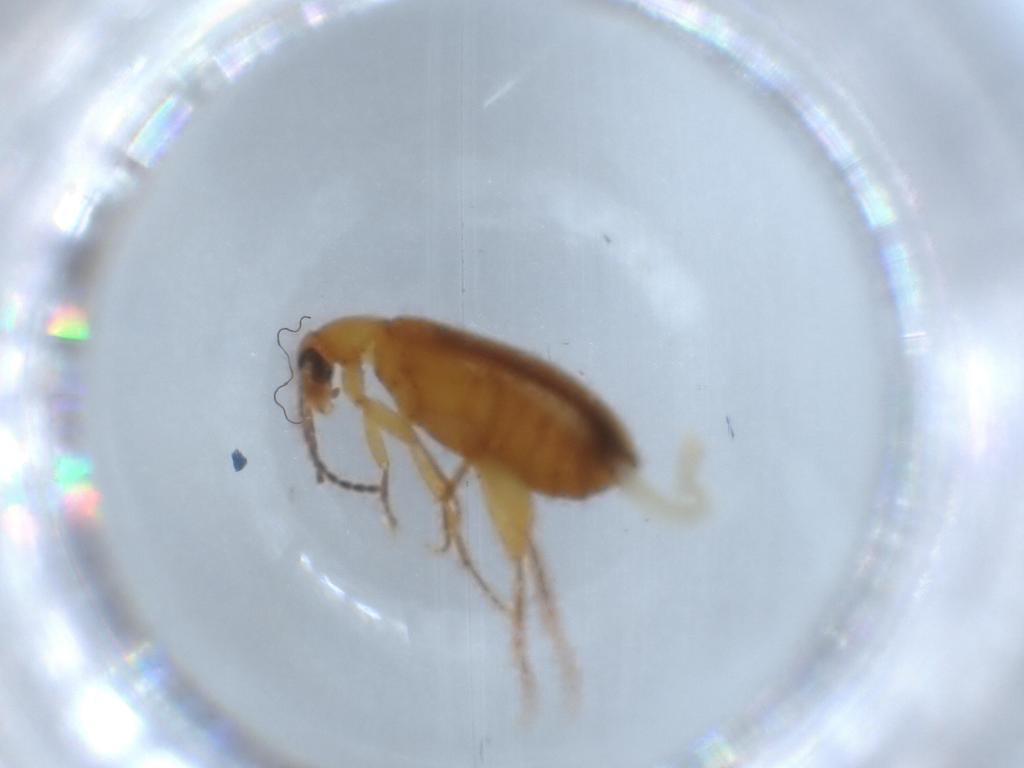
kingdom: Animalia
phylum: Arthropoda
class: Insecta
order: Coleoptera
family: Scraptiidae
